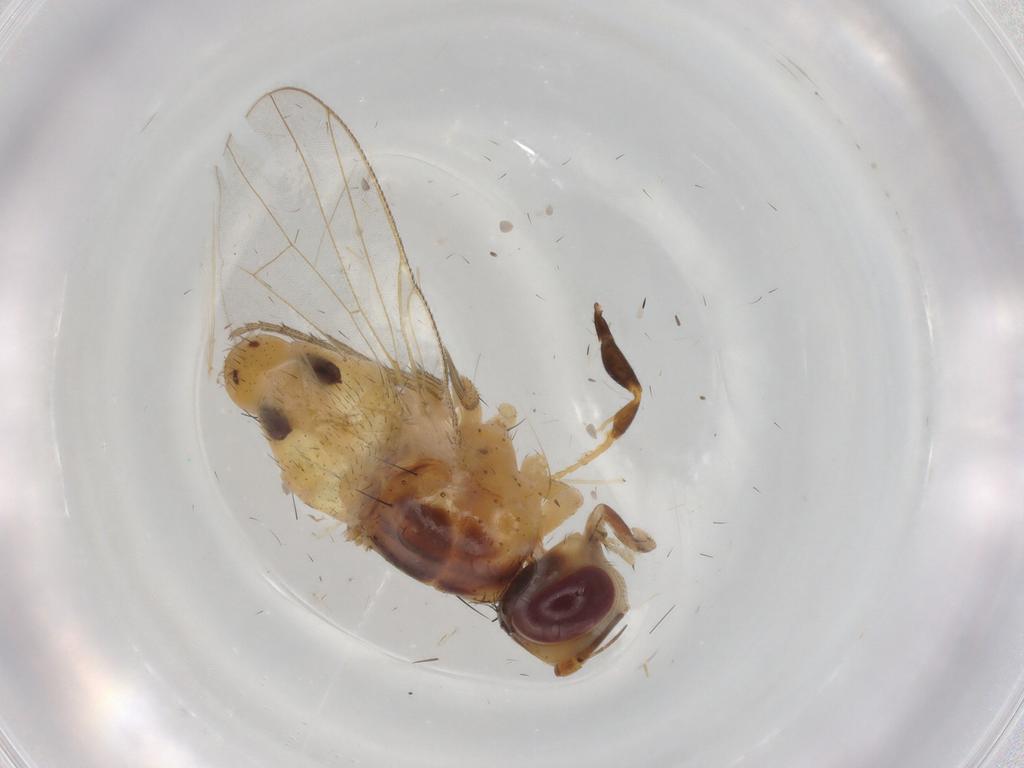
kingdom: Animalia
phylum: Arthropoda
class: Insecta
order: Diptera
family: Muscidae
